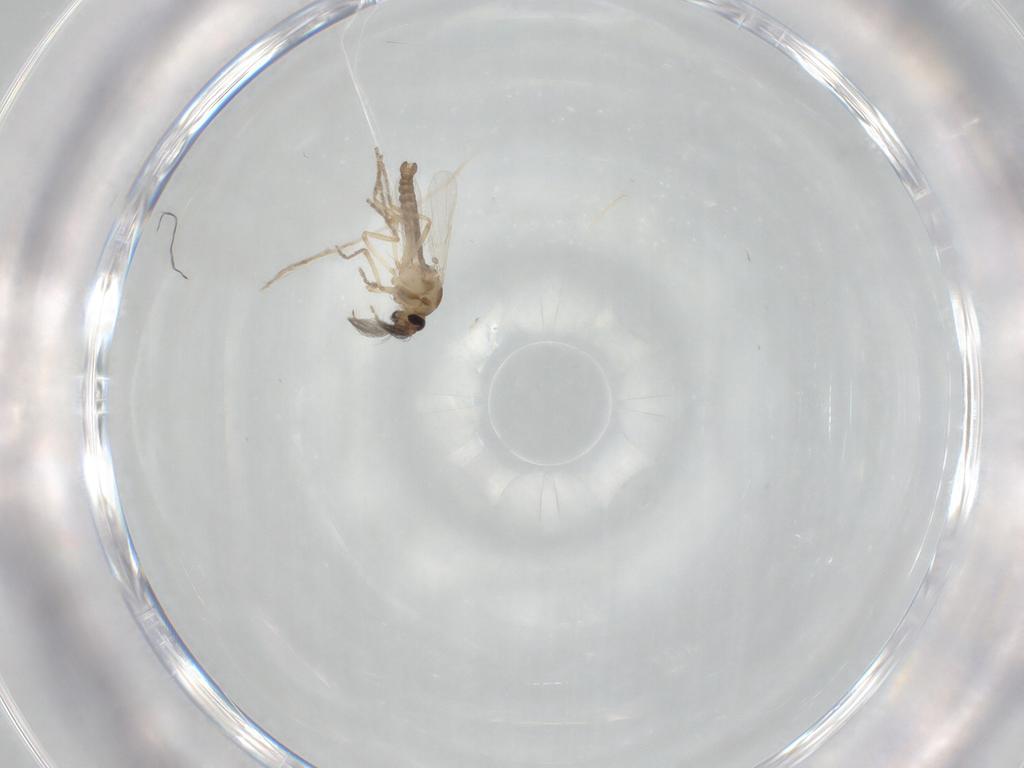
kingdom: Animalia
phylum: Arthropoda
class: Insecta
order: Diptera
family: Ceratopogonidae
